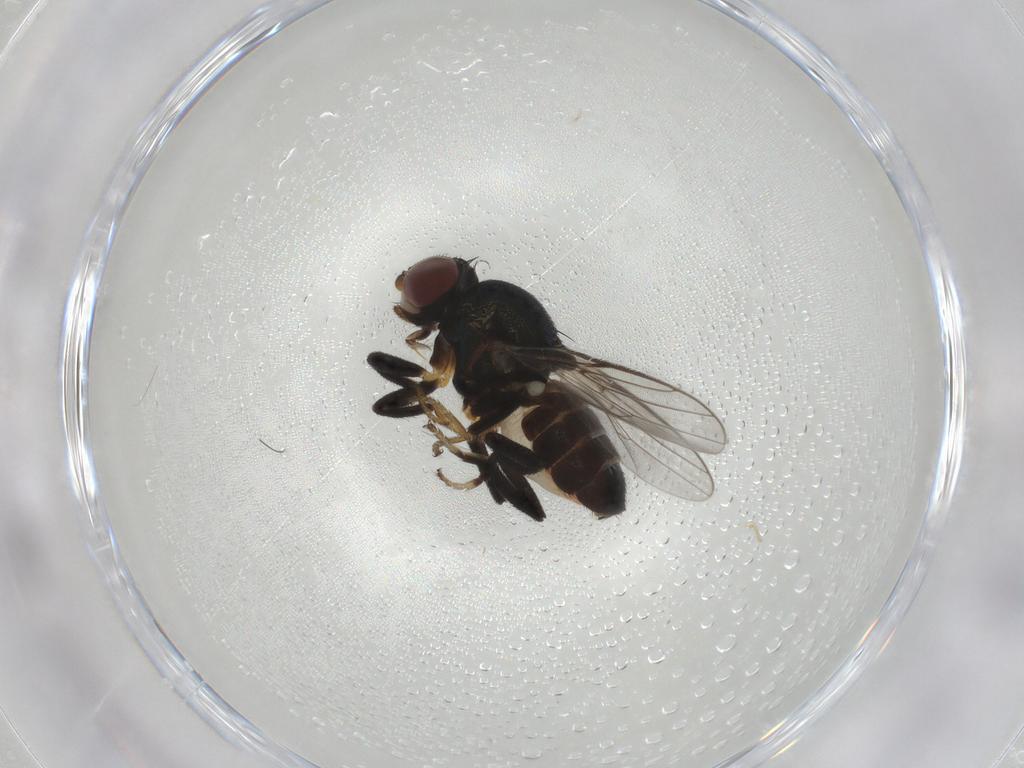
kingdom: Animalia
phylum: Arthropoda
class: Insecta
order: Diptera
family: Chloropidae
